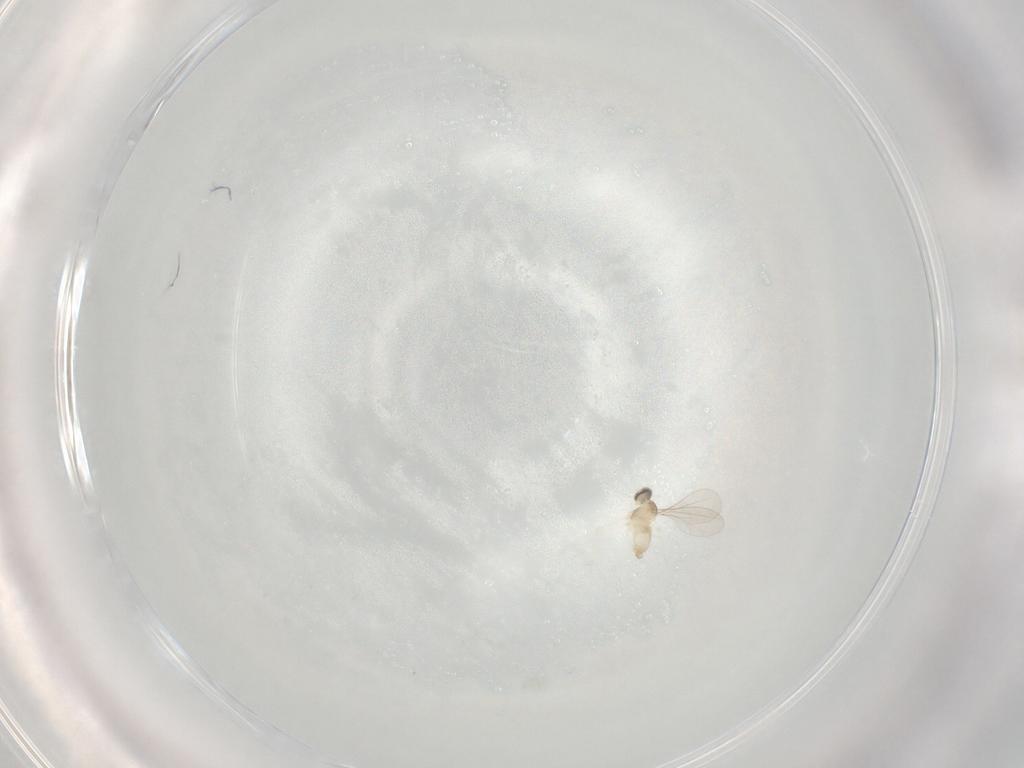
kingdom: Animalia
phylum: Arthropoda
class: Insecta
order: Diptera
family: Cecidomyiidae
